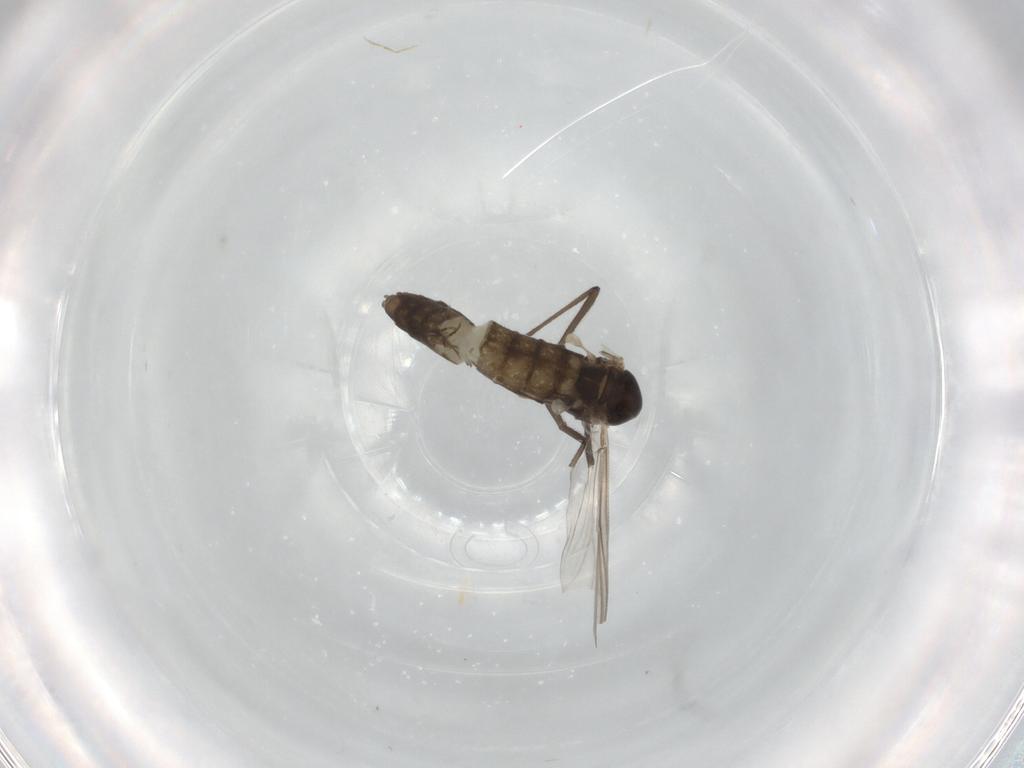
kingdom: Animalia
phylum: Arthropoda
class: Insecta
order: Diptera
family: Chironomidae
